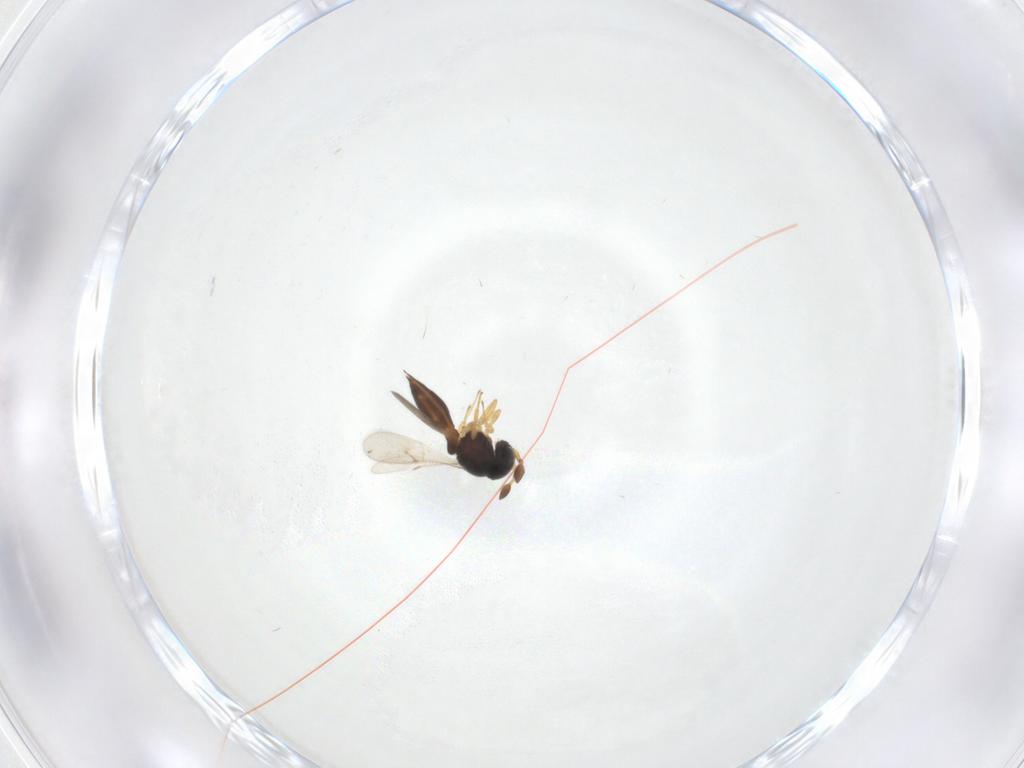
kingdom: Animalia
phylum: Arthropoda
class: Insecta
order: Hymenoptera
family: Scelionidae
